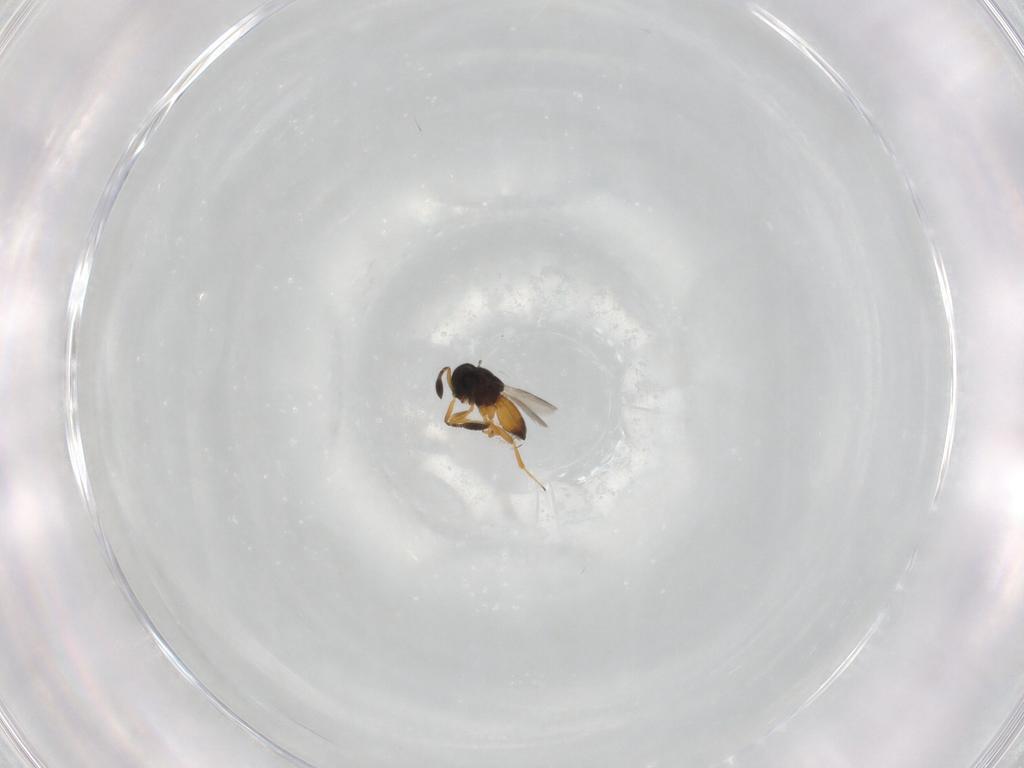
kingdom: Animalia
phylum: Arthropoda
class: Insecta
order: Hymenoptera
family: Scelionidae
